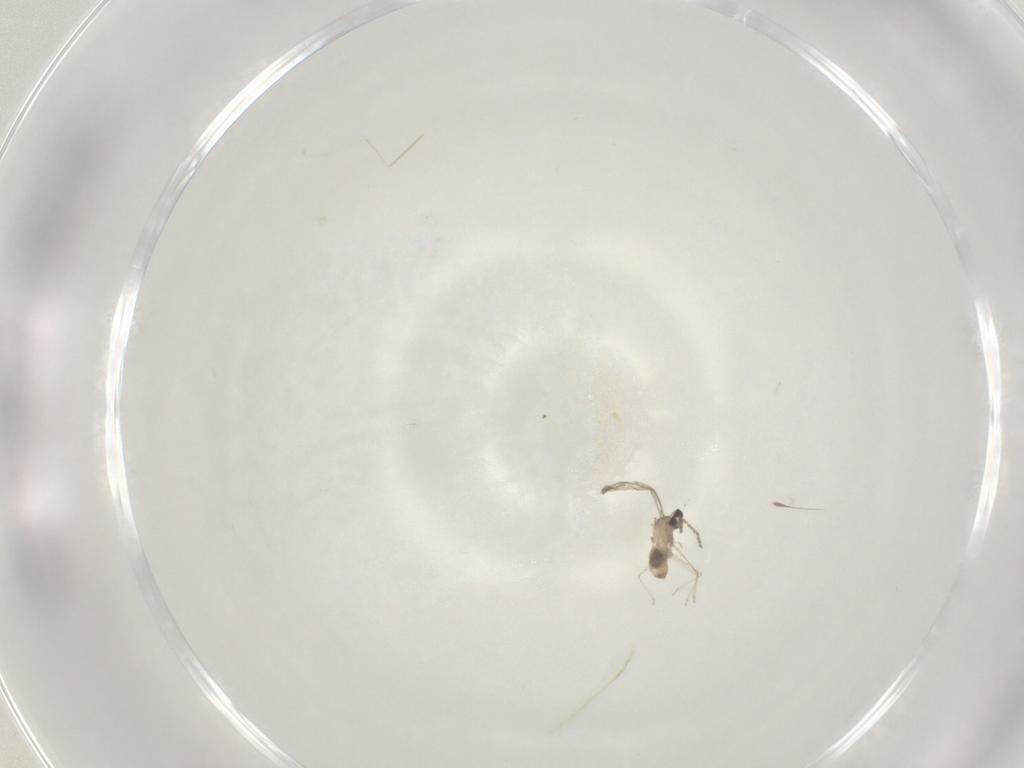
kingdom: Animalia
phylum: Arthropoda
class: Insecta
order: Diptera
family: Cecidomyiidae
